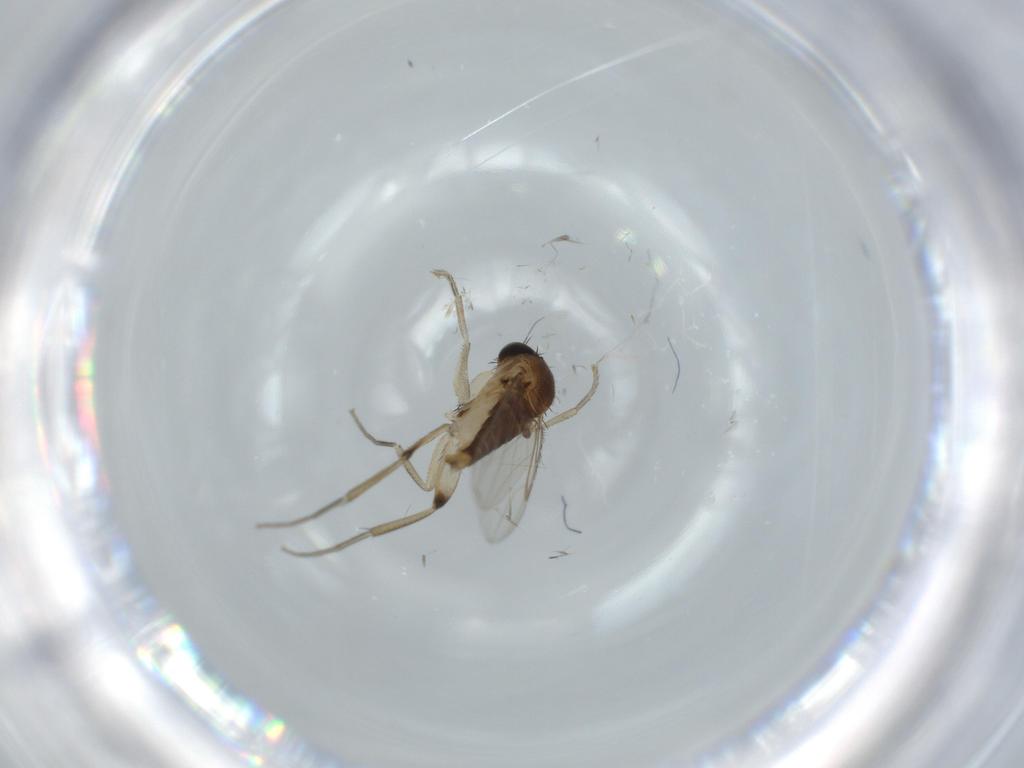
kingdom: Animalia
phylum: Arthropoda
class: Insecta
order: Diptera
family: Phoridae
